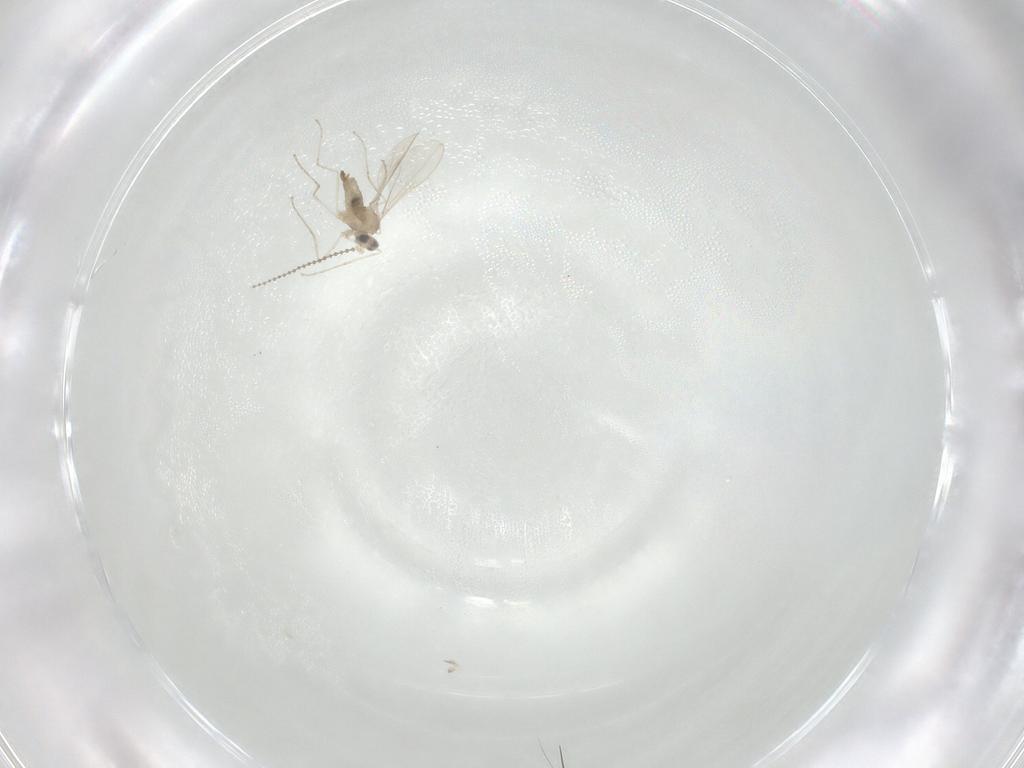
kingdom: Animalia
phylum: Arthropoda
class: Insecta
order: Diptera
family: Cecidomyiidae
